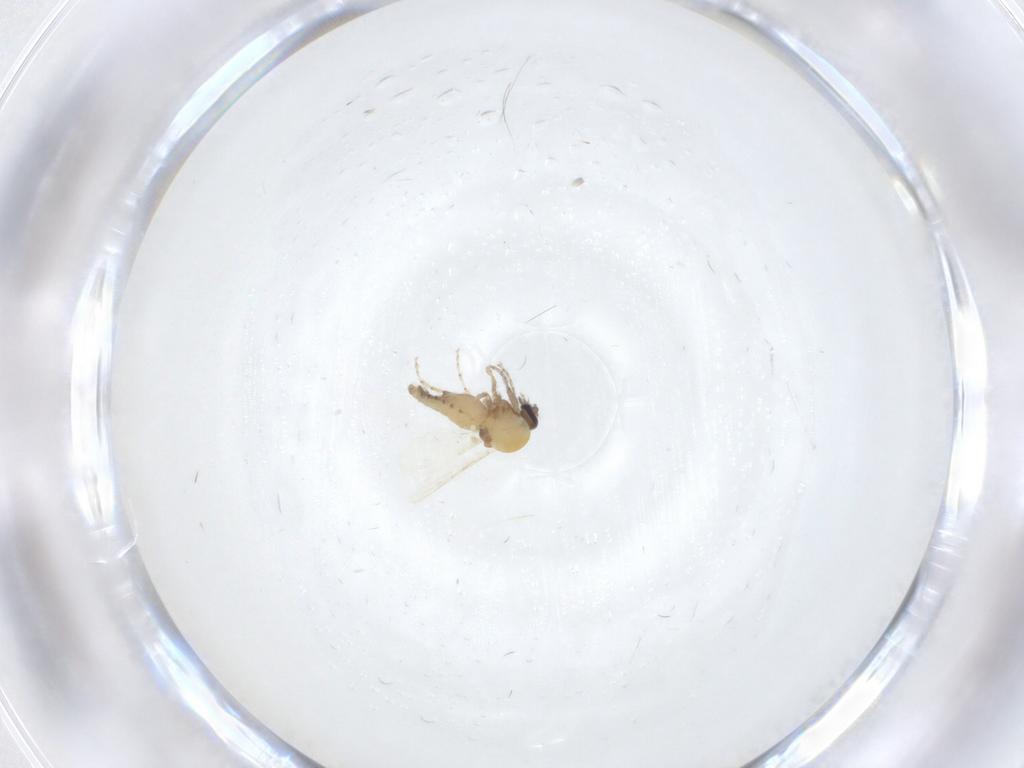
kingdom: Animalia
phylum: Arthropoda
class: Insecta
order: Diptera
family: Ceratopogonidae
